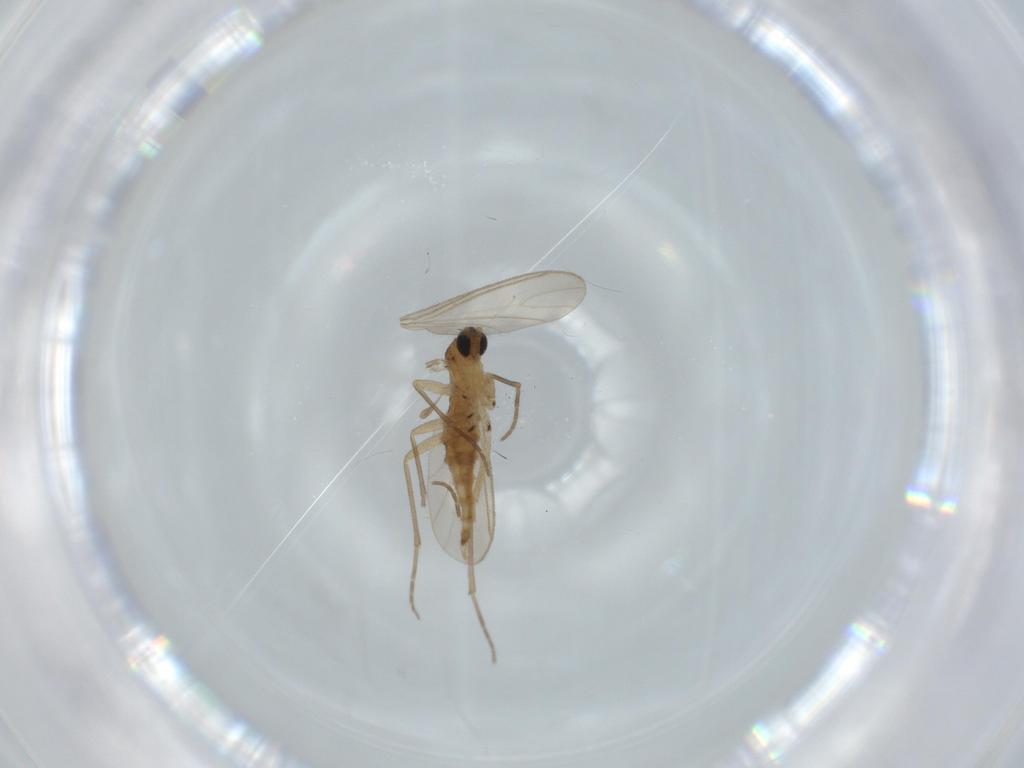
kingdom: Animalia
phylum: Arthropoda
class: Insecta
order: Diptera
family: Sciaridae
